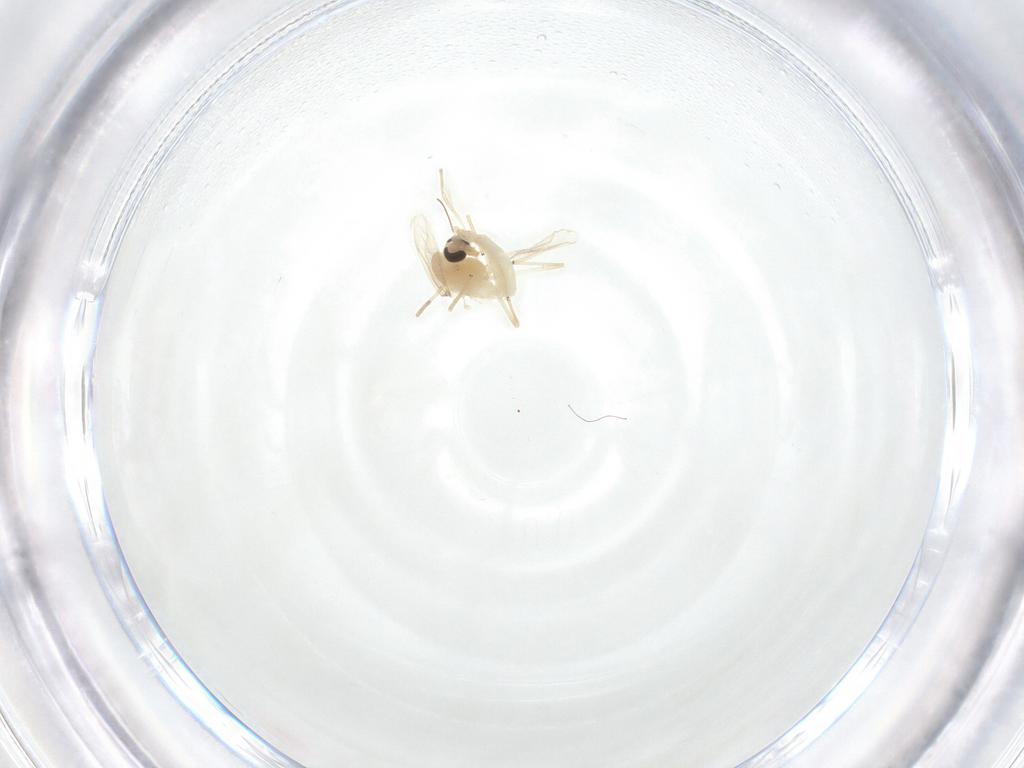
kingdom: Animalia
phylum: Arthropoda
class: Insecta
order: Diptera
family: Chironomidae
